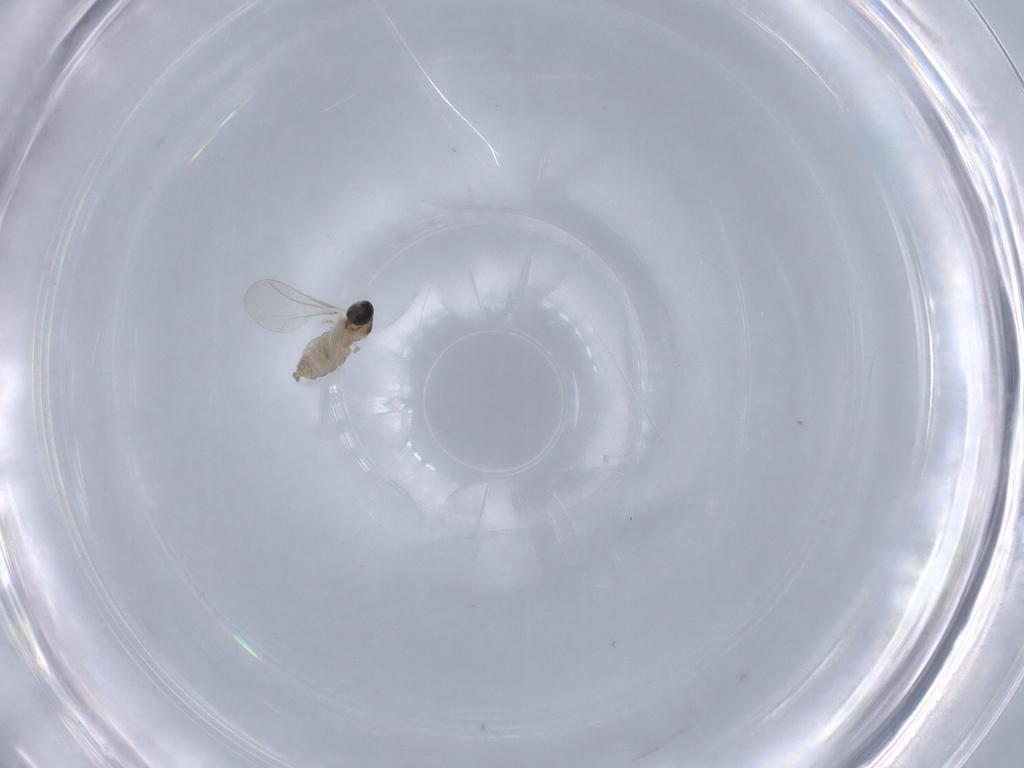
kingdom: Animalia
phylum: Arthropoda
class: Insecta
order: Diptera
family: Cecidomyiidae
